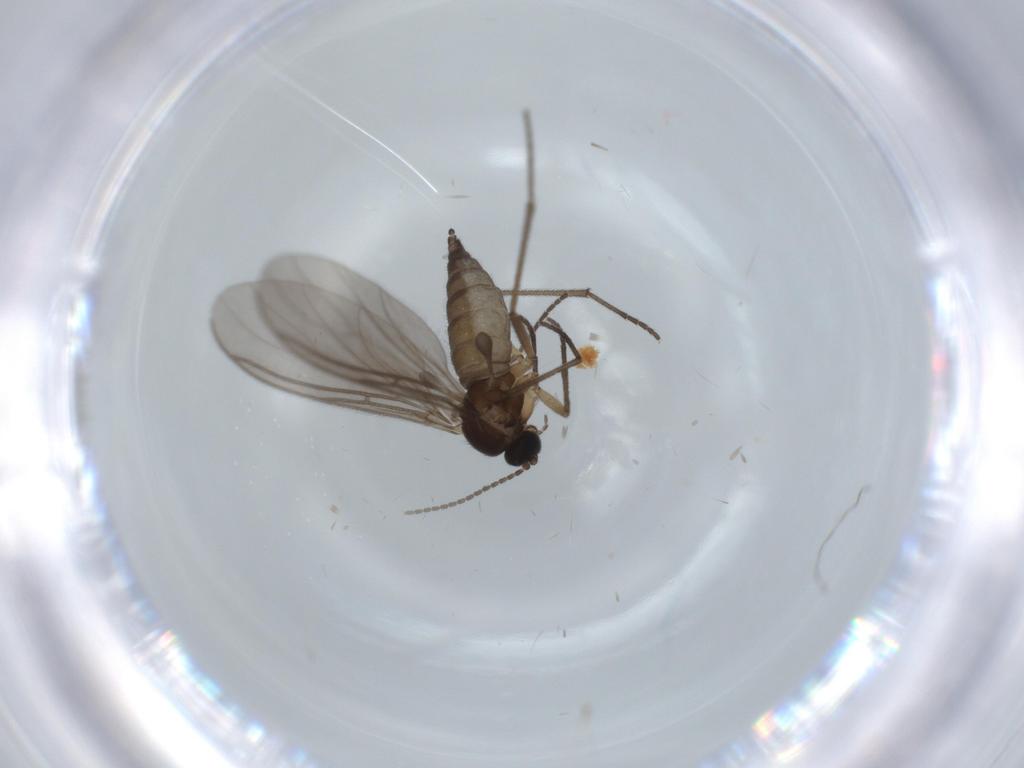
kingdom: Animalia
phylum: Arthropoda
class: Insecta
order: Diptera
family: Sciaridae
